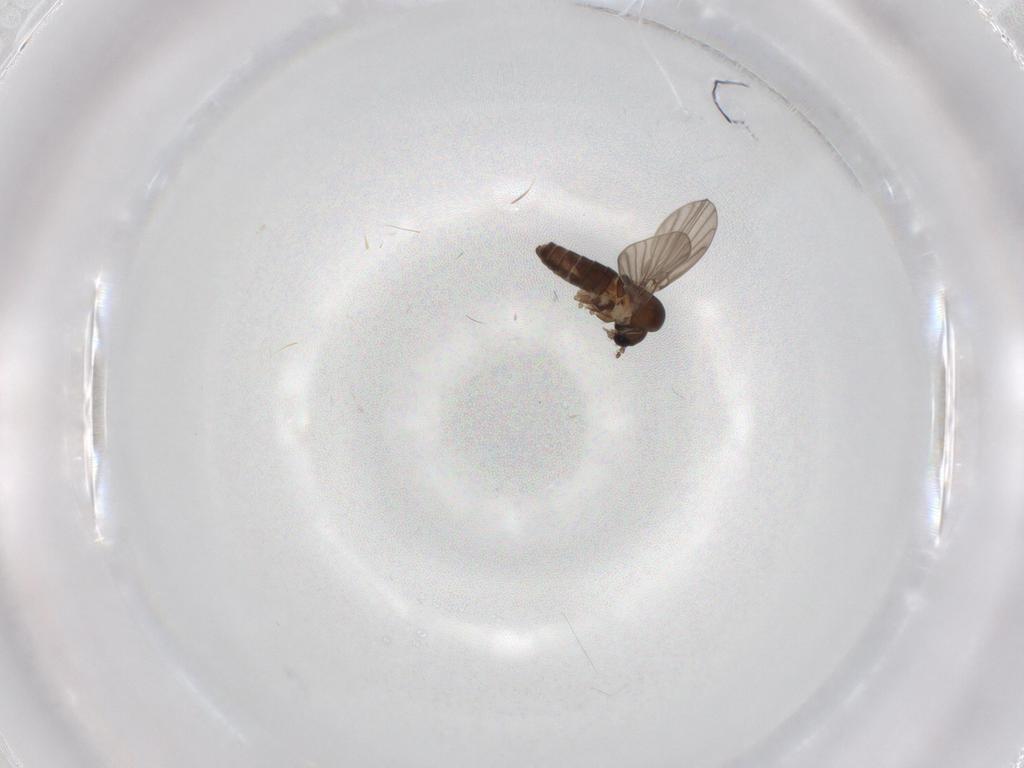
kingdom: Animalia
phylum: Arthropoda
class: Insecta
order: Diptera
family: Psychodidae
